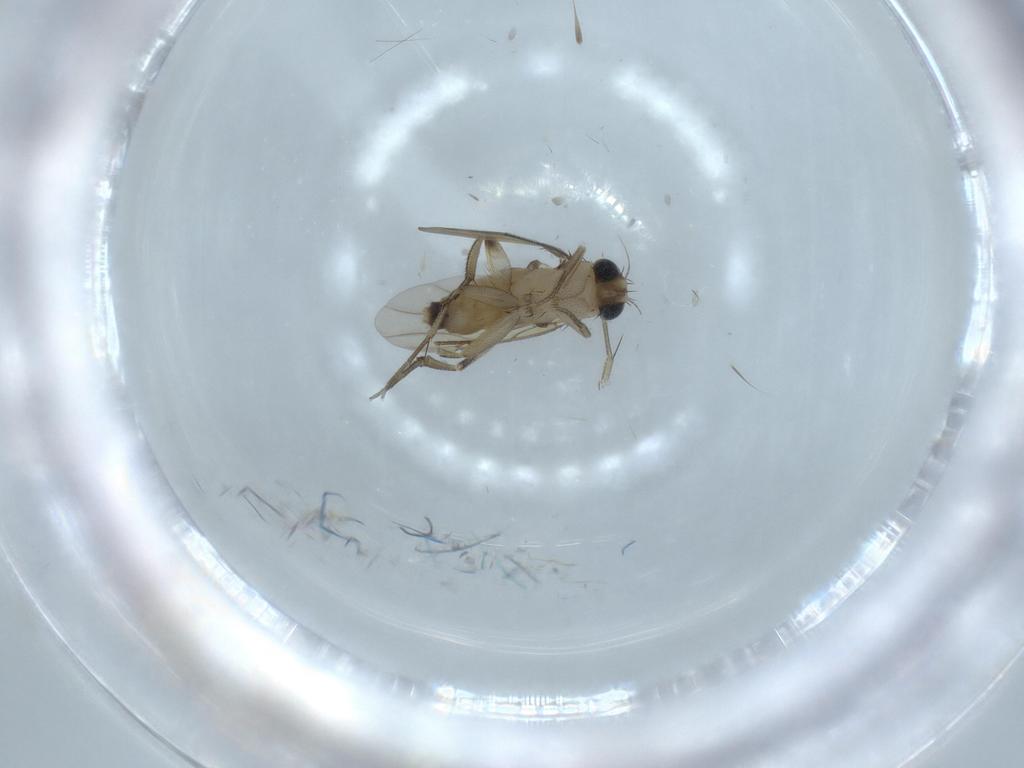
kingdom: Animalia
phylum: Arthropoda
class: Insecta
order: Diptera
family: Phoridae
